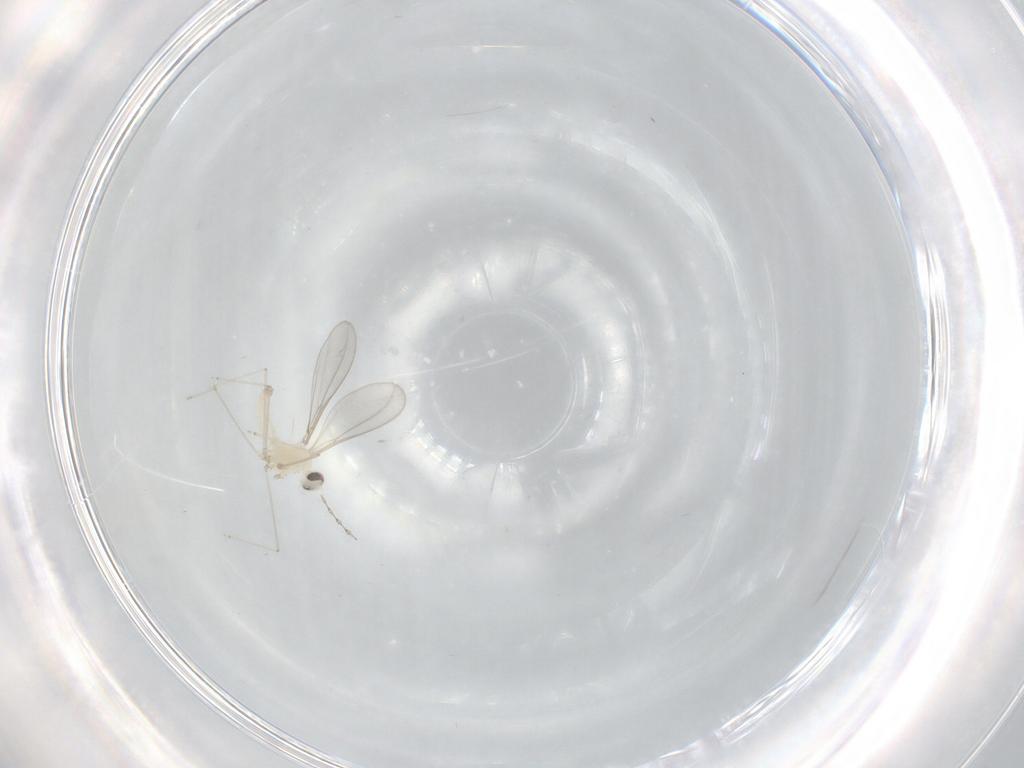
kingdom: Animalia
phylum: Arthropoda
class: Insecta
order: Diptera
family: Cecidomyiidae
